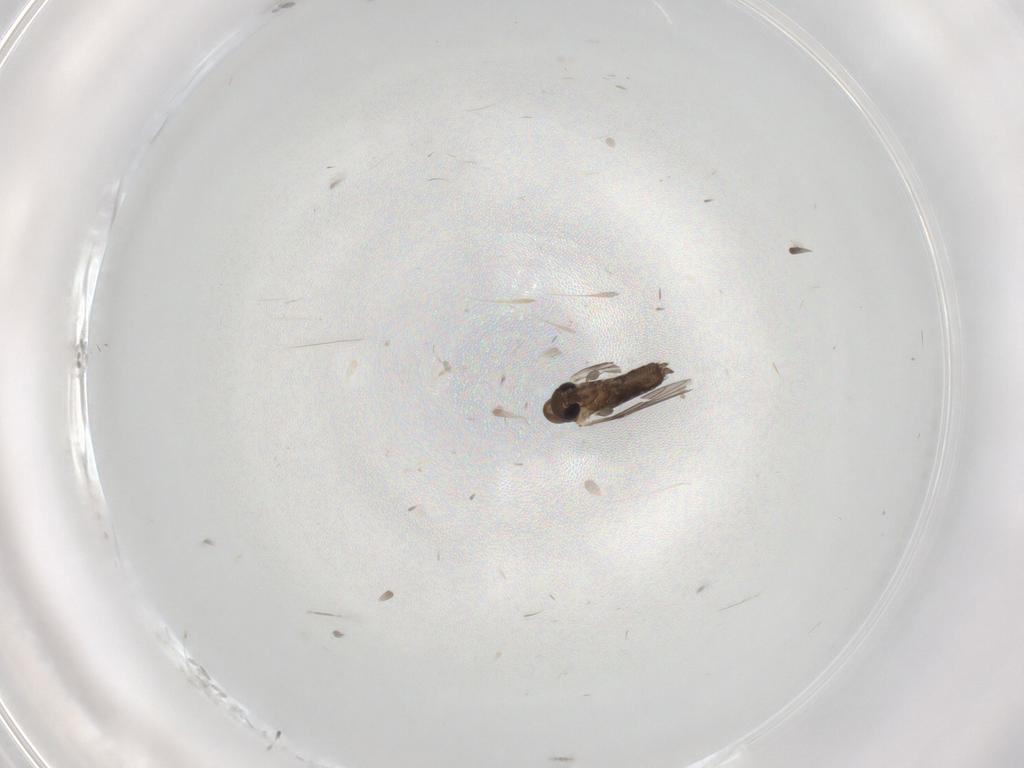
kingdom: Animalia
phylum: Arthropoda
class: Insecta
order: Diptera
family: Chironomidae
